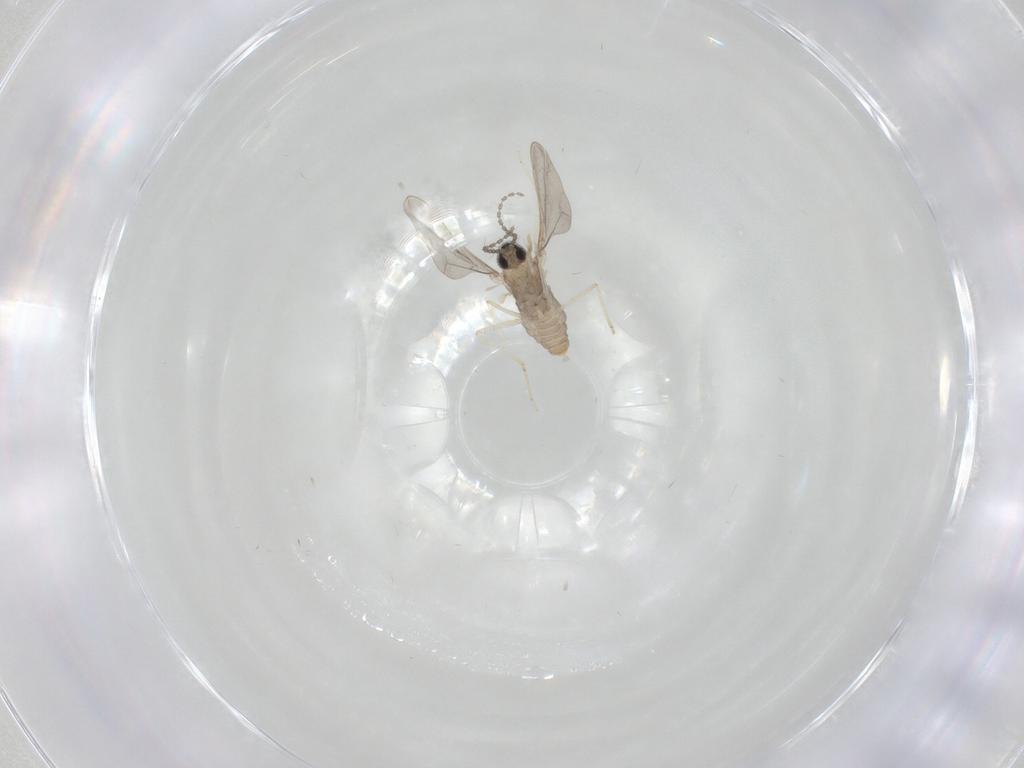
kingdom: Animalia
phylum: Arthropoda
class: Insecta
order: Diptera
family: Cecidomyiidae
